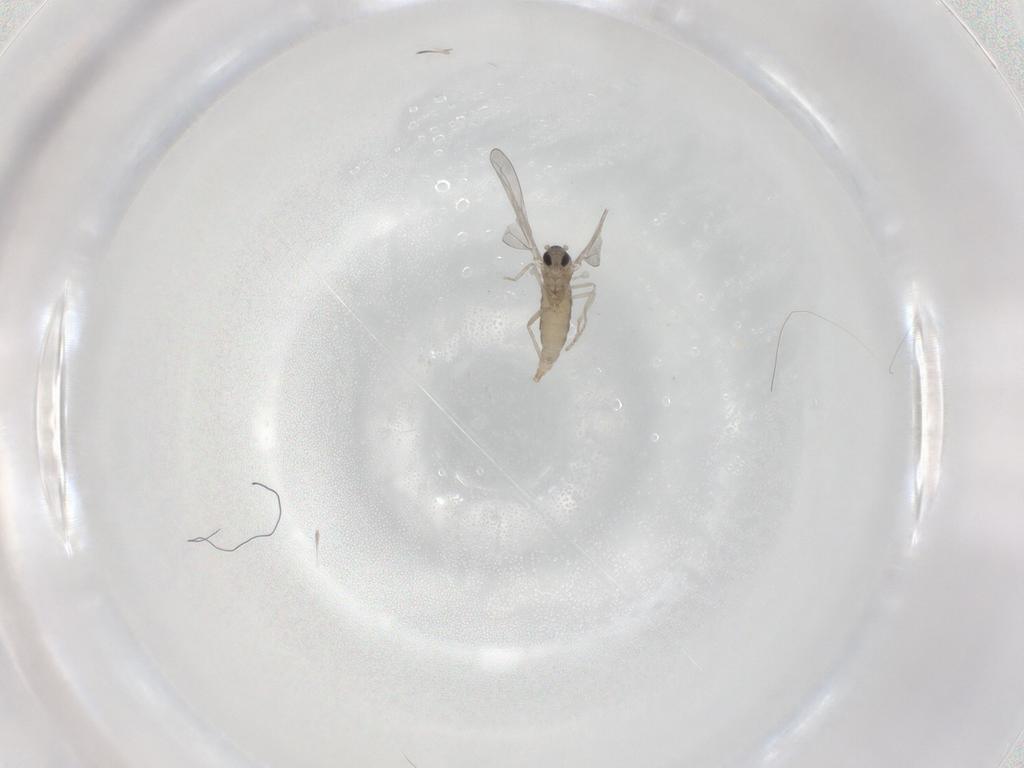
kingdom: Animalia
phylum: Arthropoda
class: Insecta
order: Diptera
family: Cecidomyiidae
